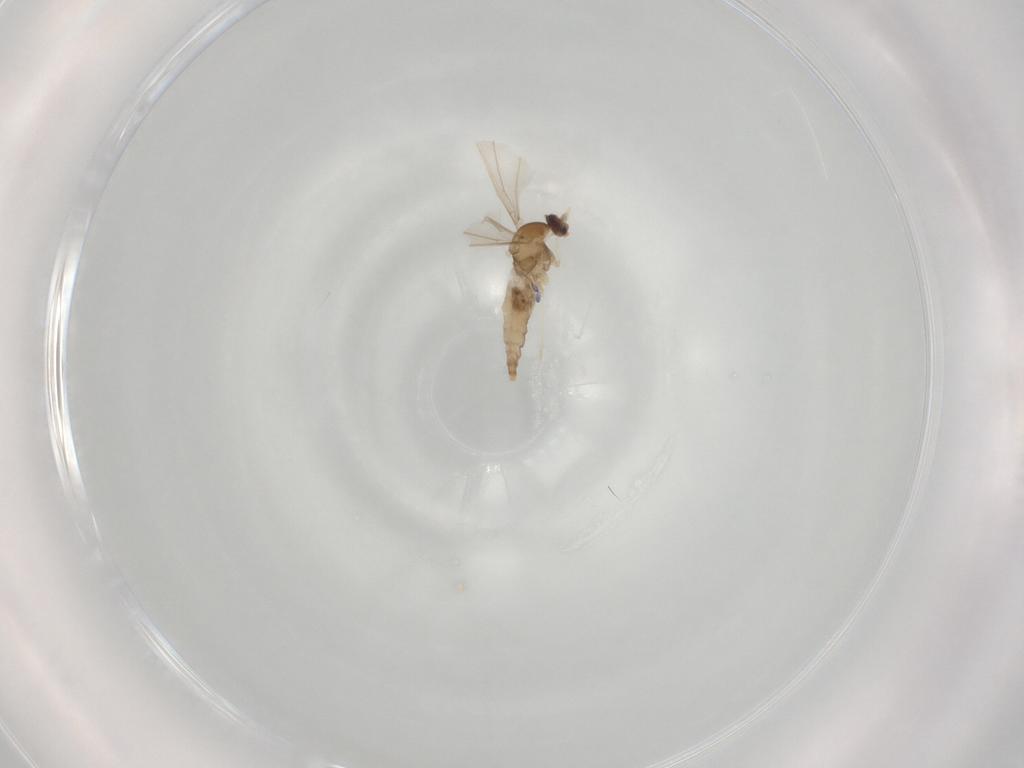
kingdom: Animalia
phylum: Arthropoda
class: Insecta
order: Diptera
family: Cecidomyiidae
